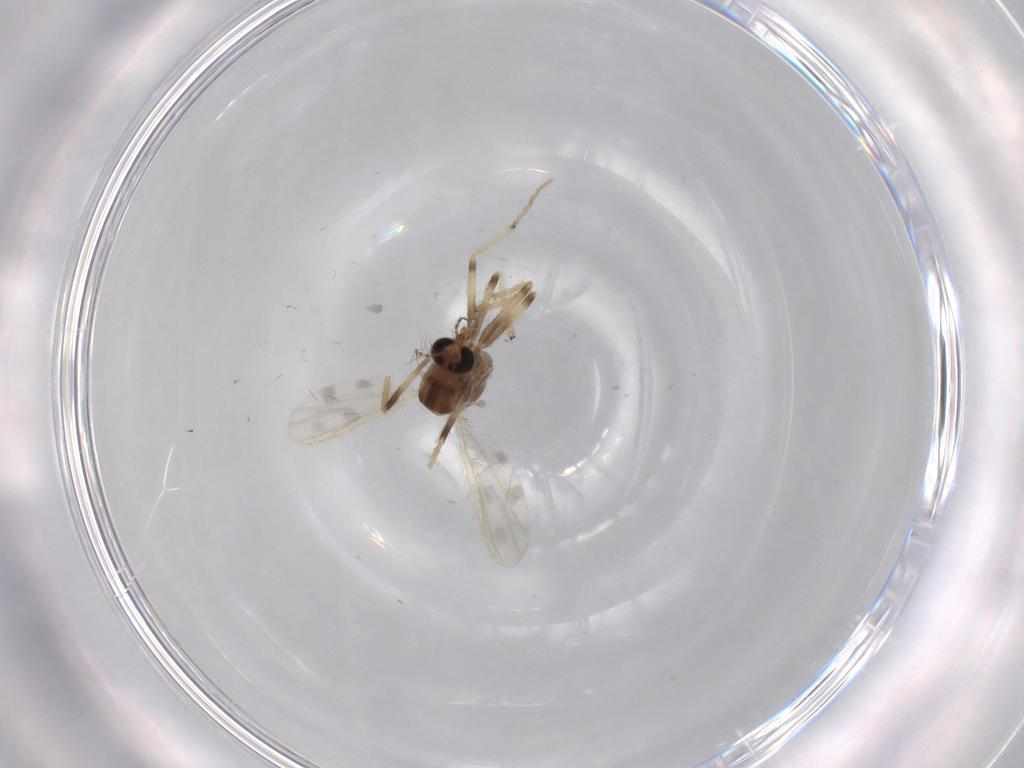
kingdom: Animalia
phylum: Arthropoda
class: Insecta
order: Diptera
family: Chironomidae
